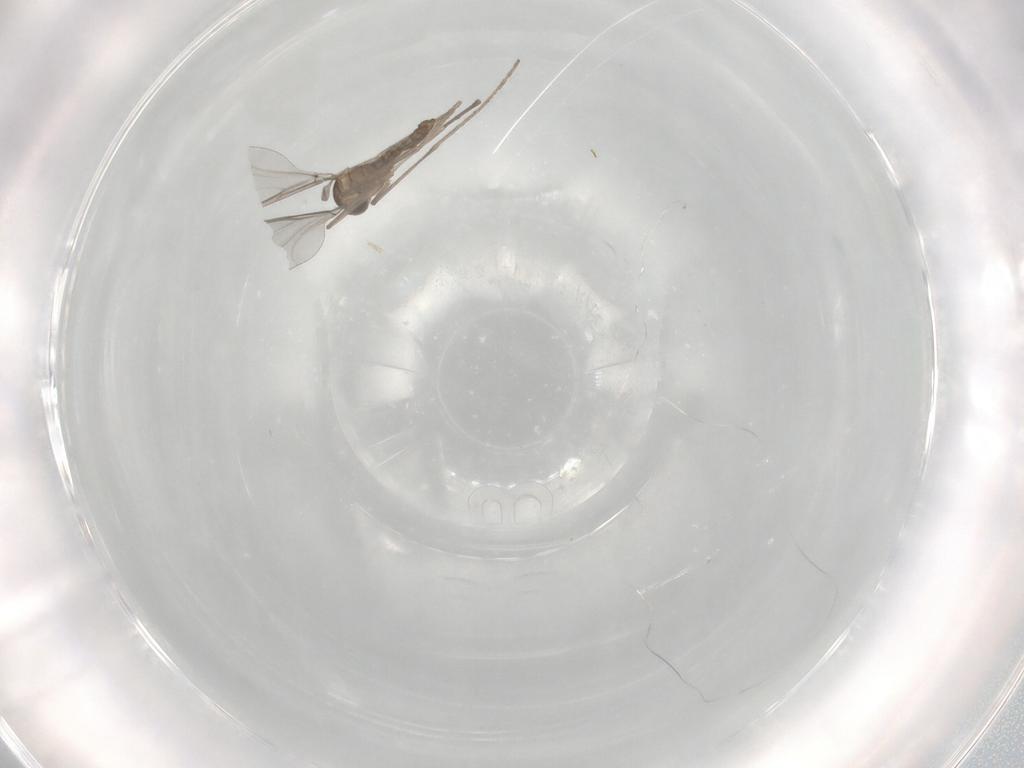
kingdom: Animalia
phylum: Arthropoda
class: Insecta
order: Diptera
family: Cecidomyiidae
